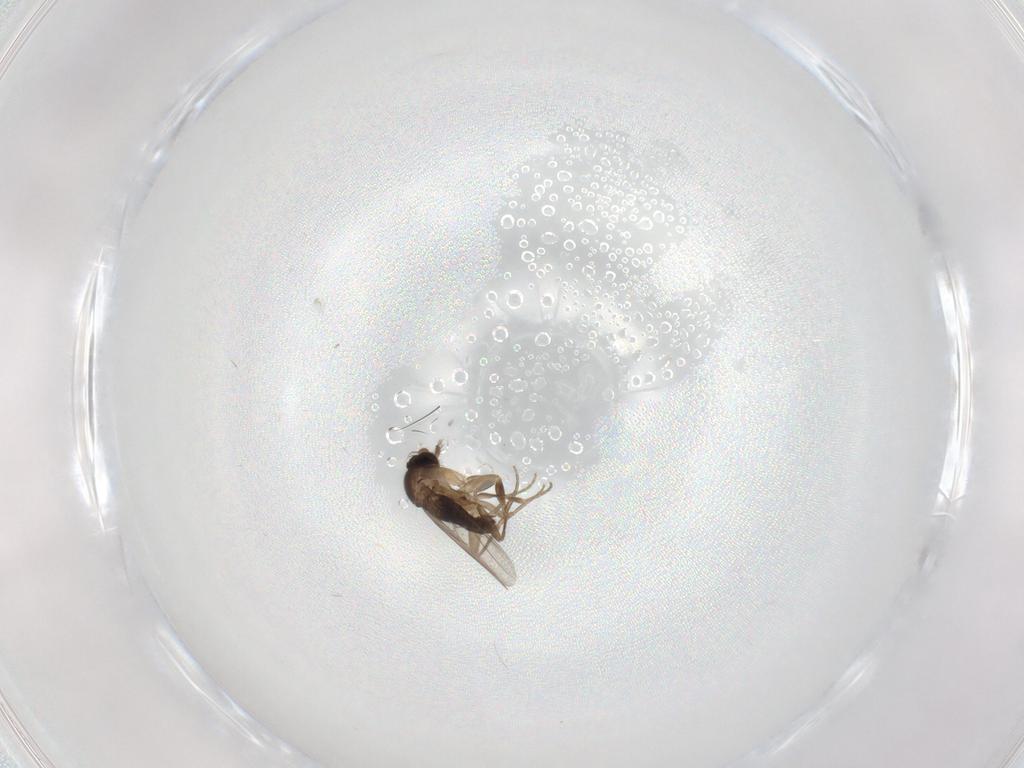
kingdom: Animalia
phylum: Arthropoda
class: Insecta
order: Diptera
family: Phoridae
